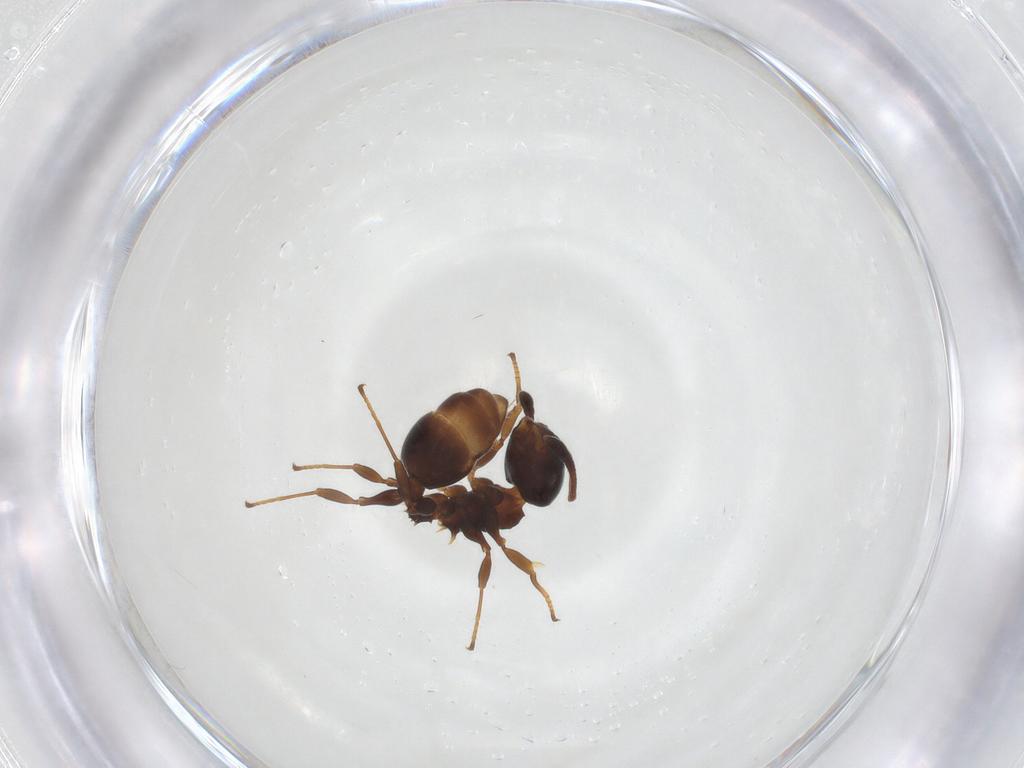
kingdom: Animalia
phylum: Arthropoda
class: Insecta
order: Hymenoptera
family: Formicidae
